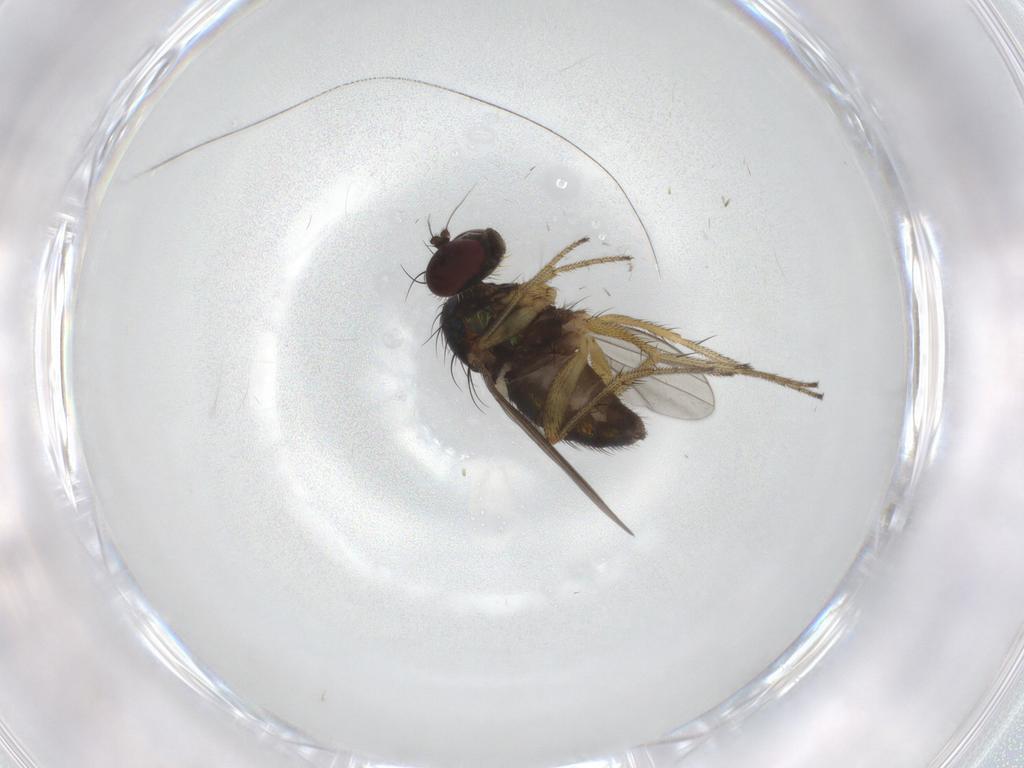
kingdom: Animalia
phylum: Arthropoda
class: Insecta
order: Diptera
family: Dolichopodidae
